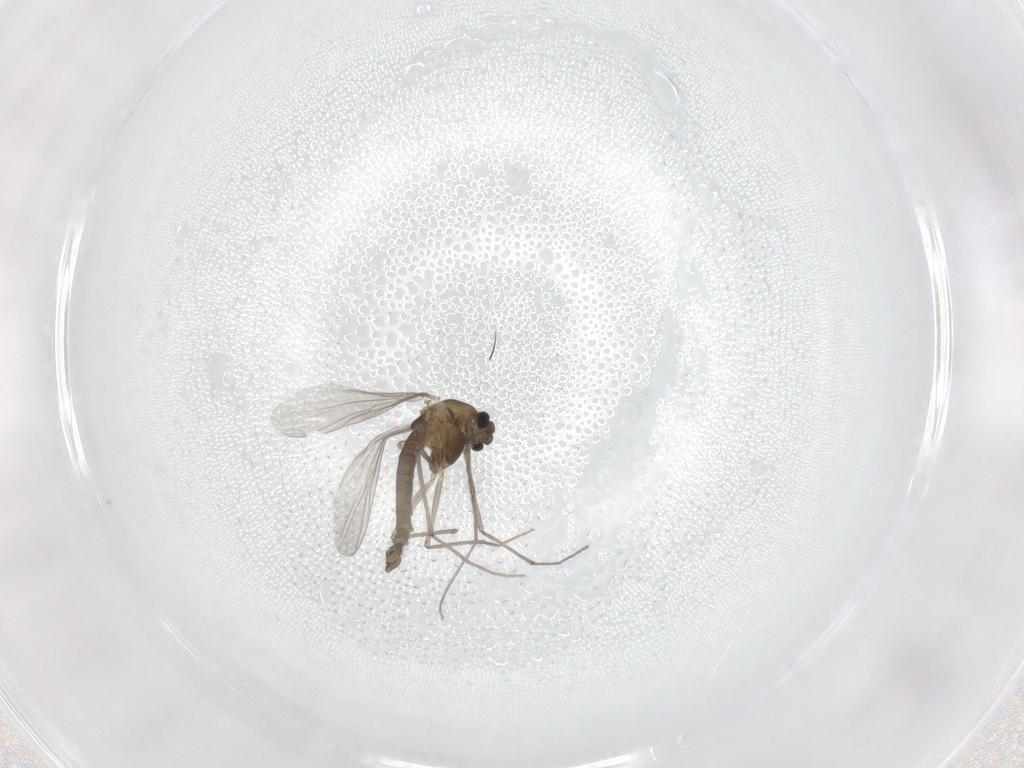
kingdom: Animalia
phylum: Arthropoda
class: Insecta
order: Diptera
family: Chironomidae
